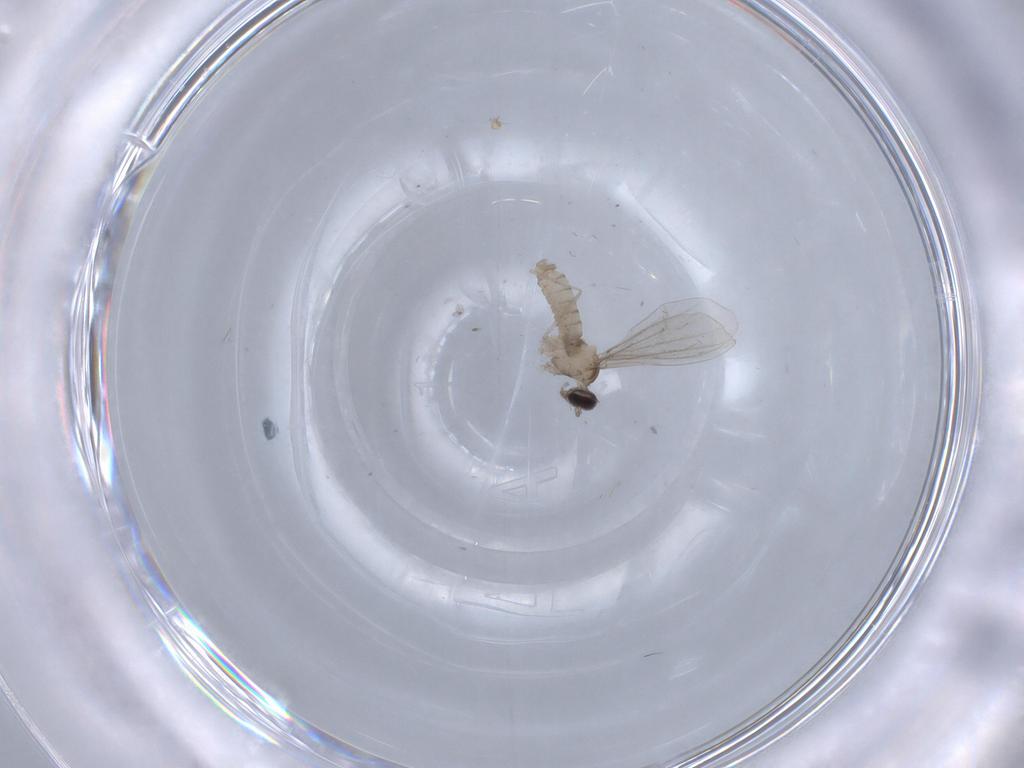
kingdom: Animalia
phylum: Arthropoda
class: Insecta
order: Diptera
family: Cecidomyiidae
